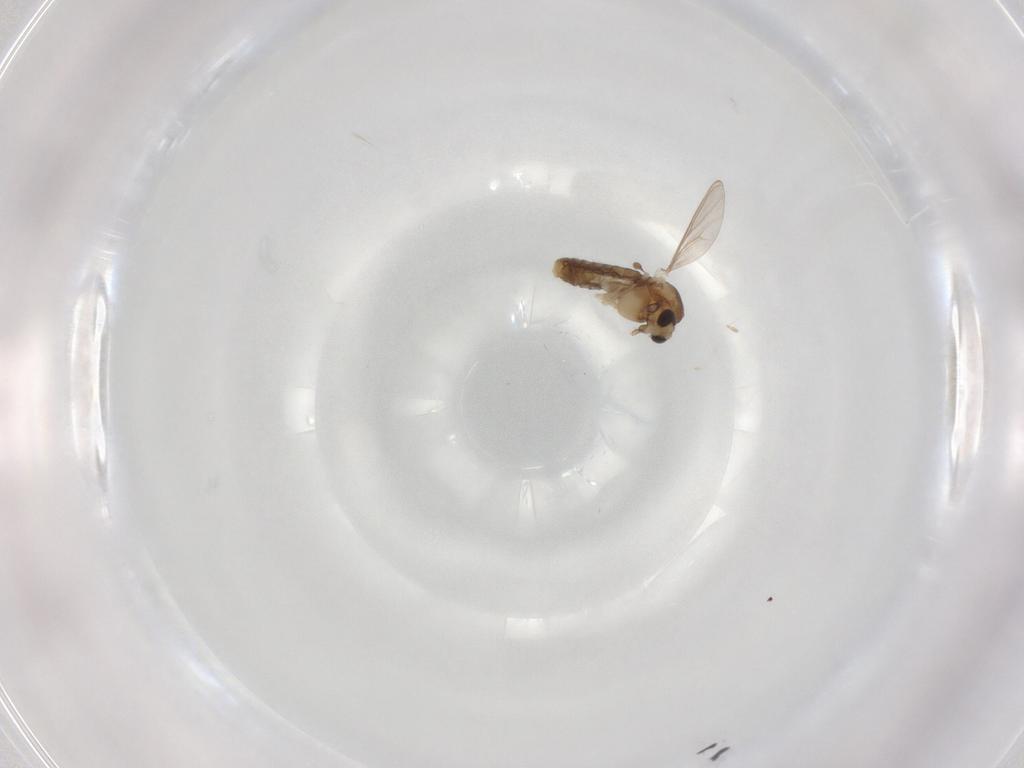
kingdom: Animalia
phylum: Arthropoda
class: Insecta
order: Diptera
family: Chironomidae
